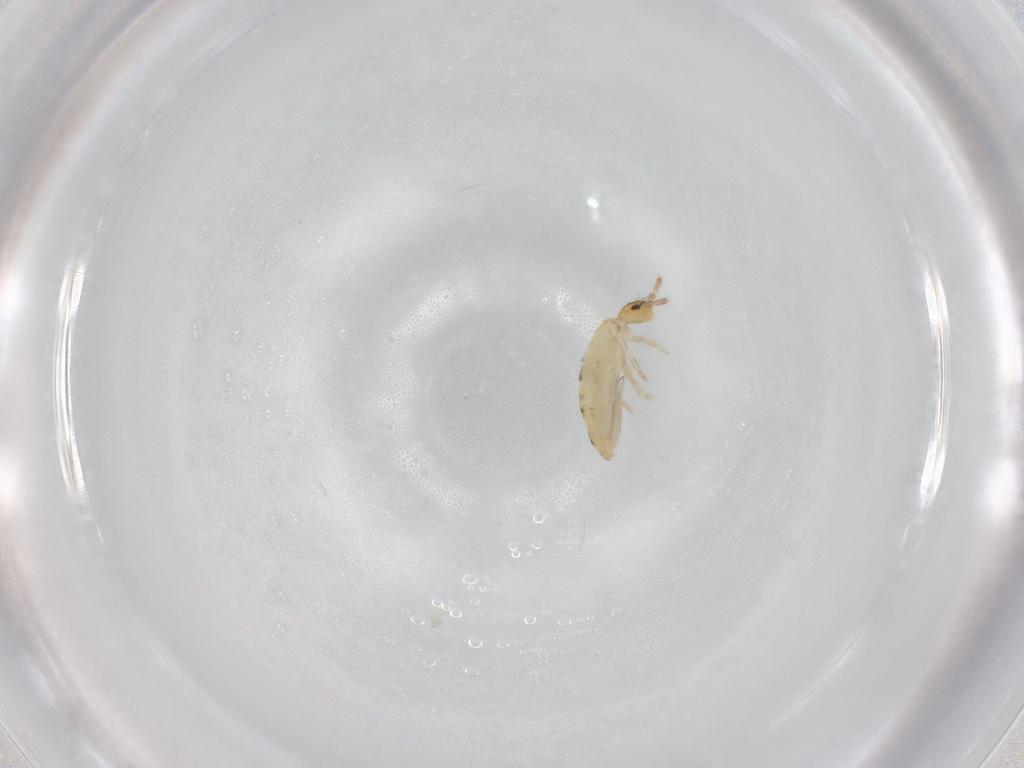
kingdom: Animalia
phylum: Arthropoda
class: Collembola
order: Entomobryomorpha
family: Entomobryidae
